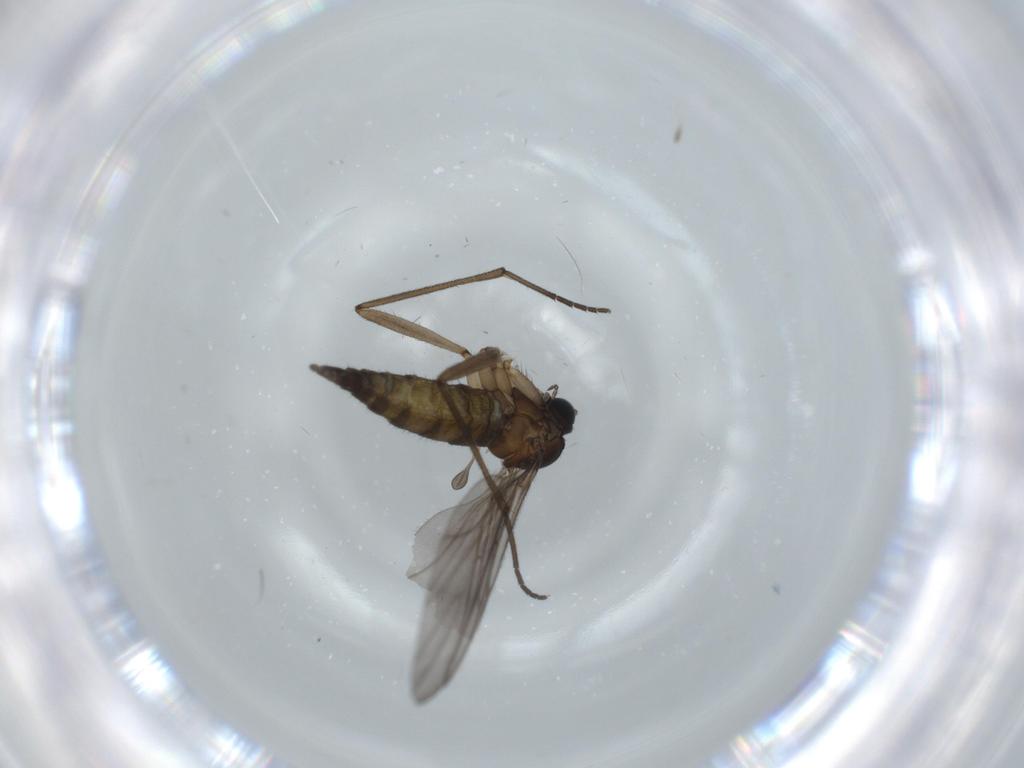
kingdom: Animalia
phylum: Arthropoda
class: Insecta
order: Diptera
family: Sciaridae
